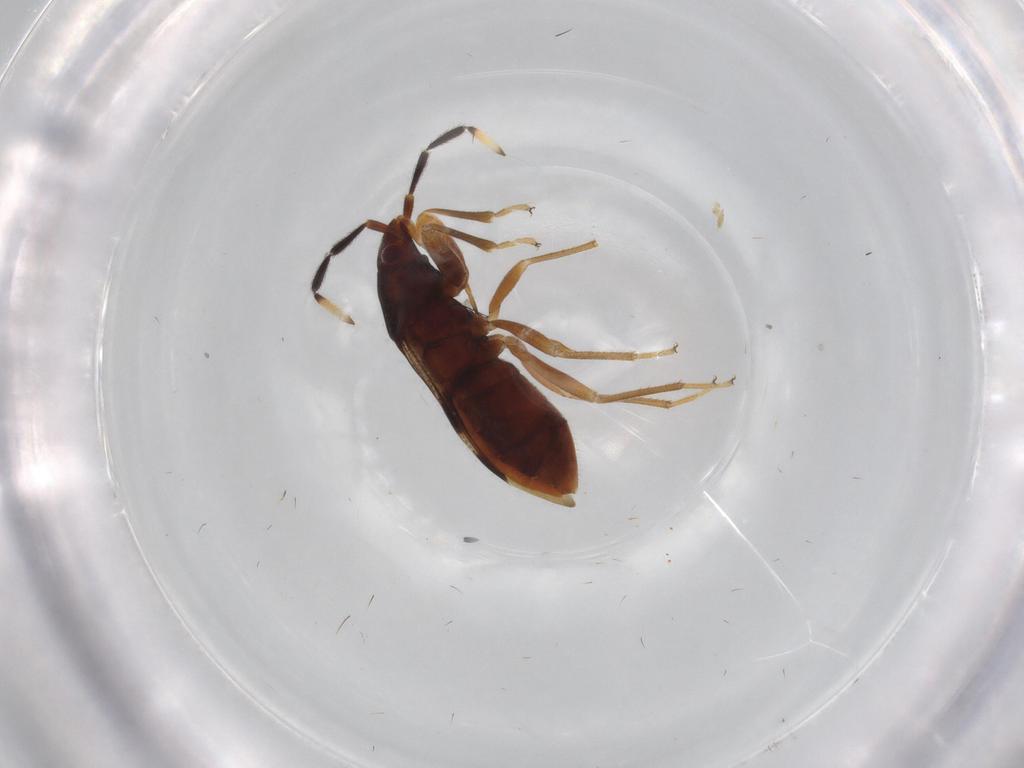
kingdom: Animalia
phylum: Arthropoda
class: Insecta
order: Hemiptera
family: Rhyparochromidae
